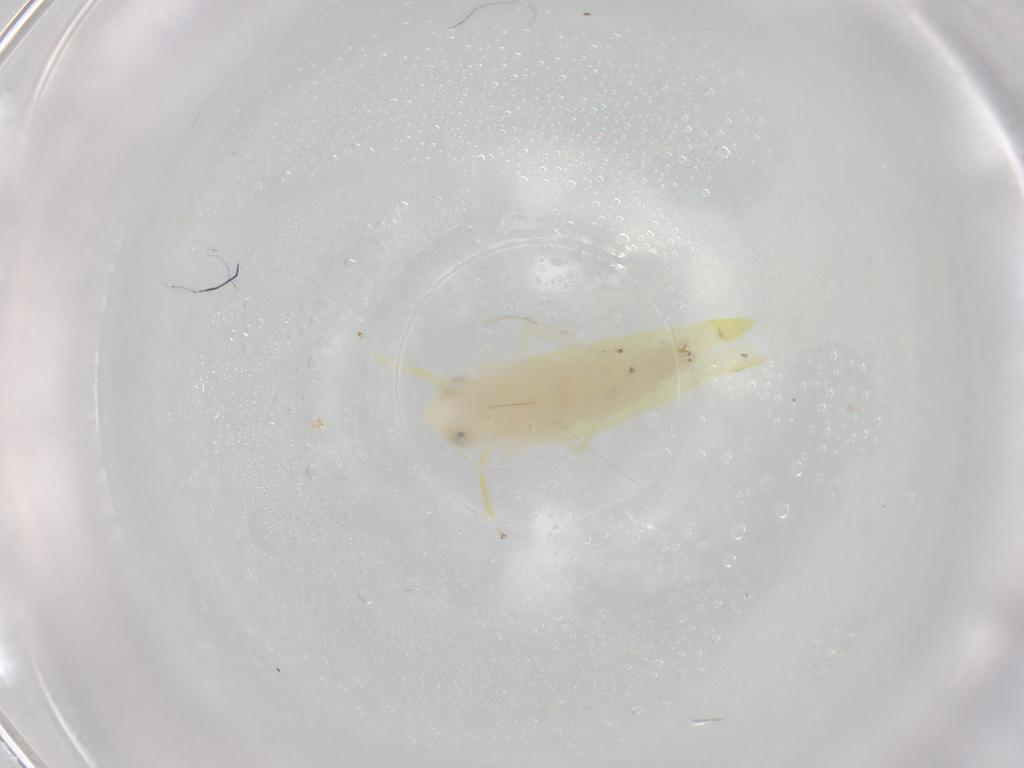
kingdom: Animalia
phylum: Arthropoda
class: Insecta
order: Hemiptera
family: Cicadellidae
